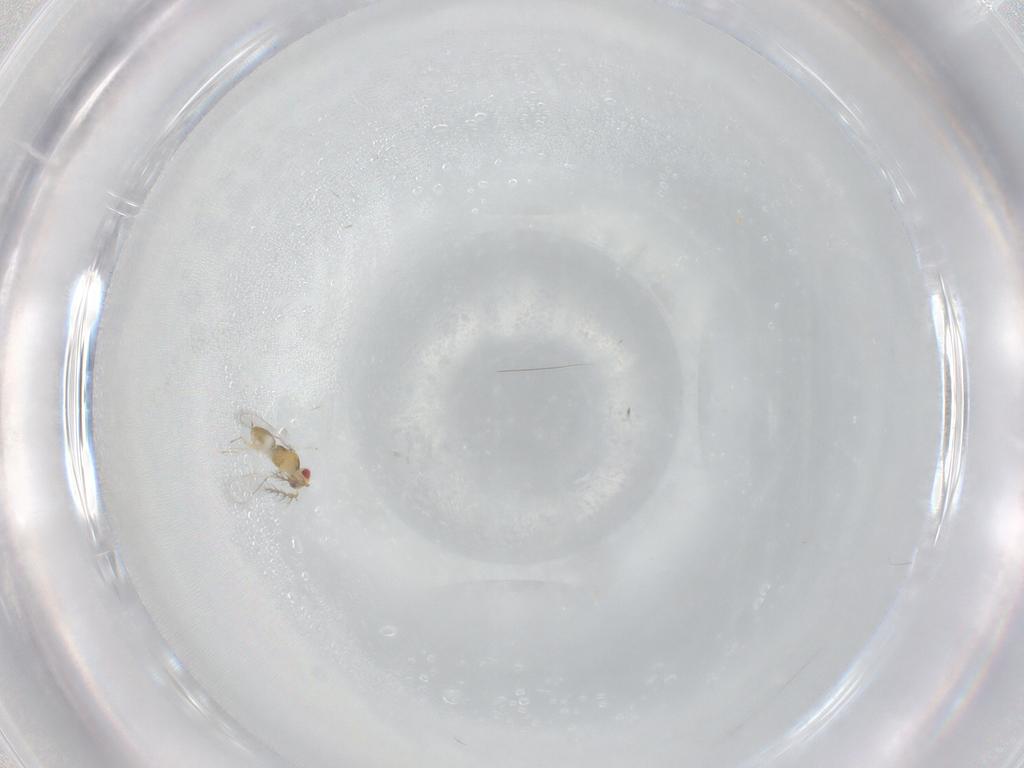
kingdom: Animalia
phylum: Arthropoda
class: Insecta
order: Hymenoptera
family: Eulophidae
